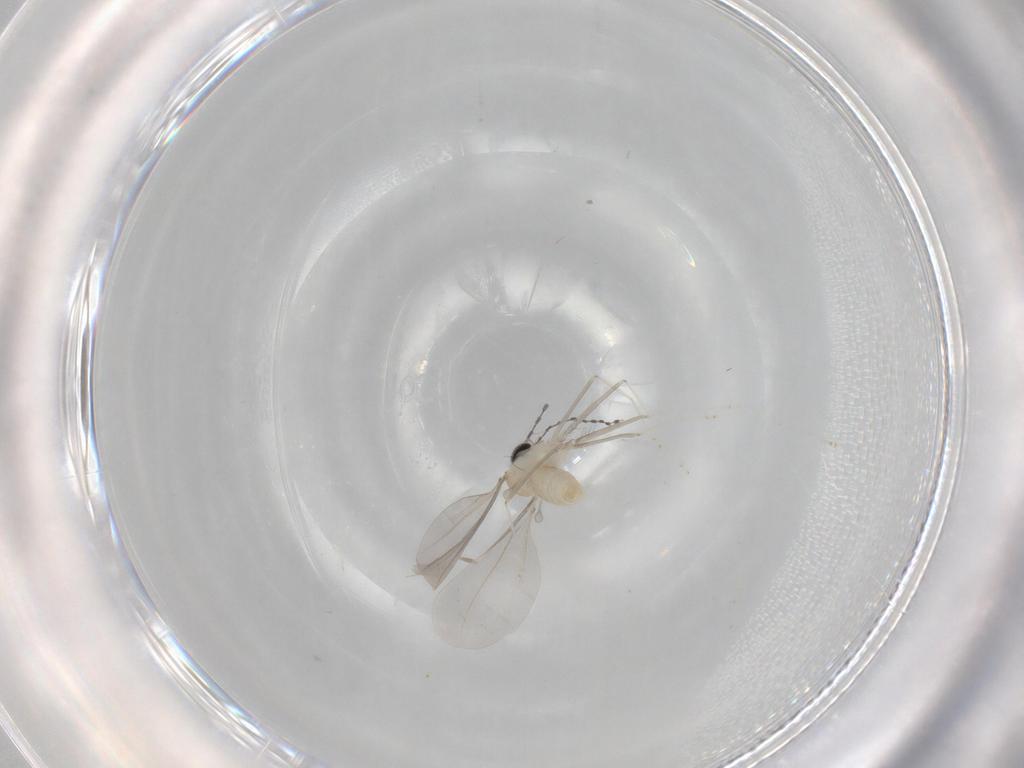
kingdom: Animalia
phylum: Arthropoda
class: Insecta
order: Diptera
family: Cecidomyiidae
